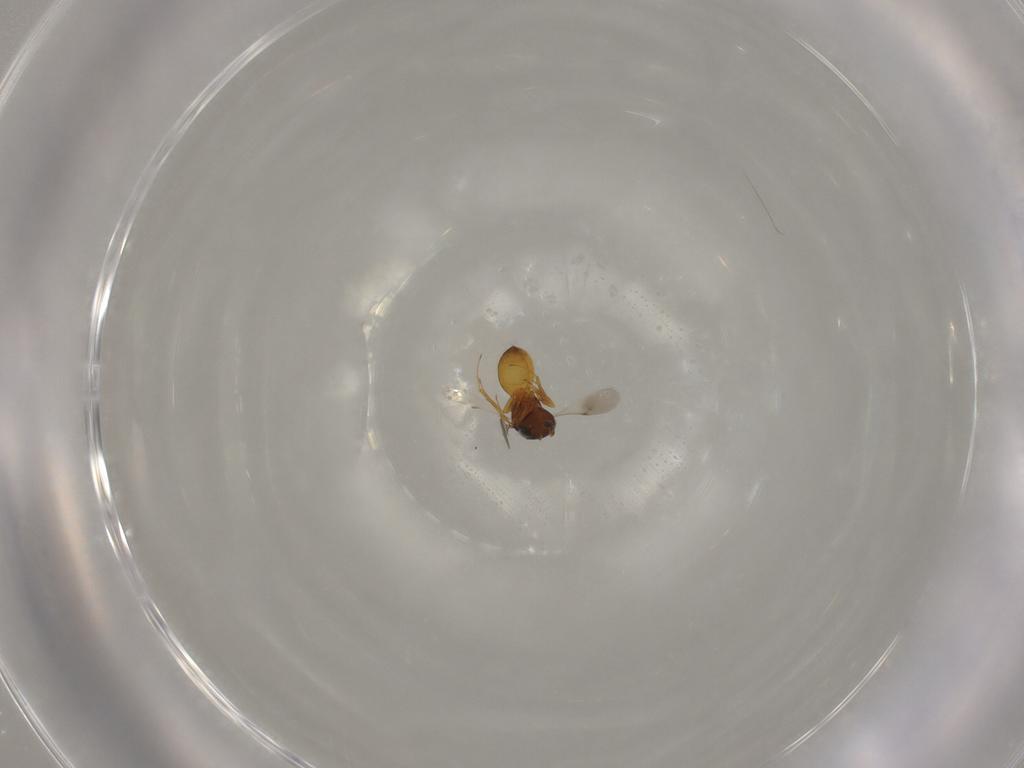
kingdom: Animalia
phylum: Arthropoda
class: Insecta
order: Hymenoptera
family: Scelionidae
